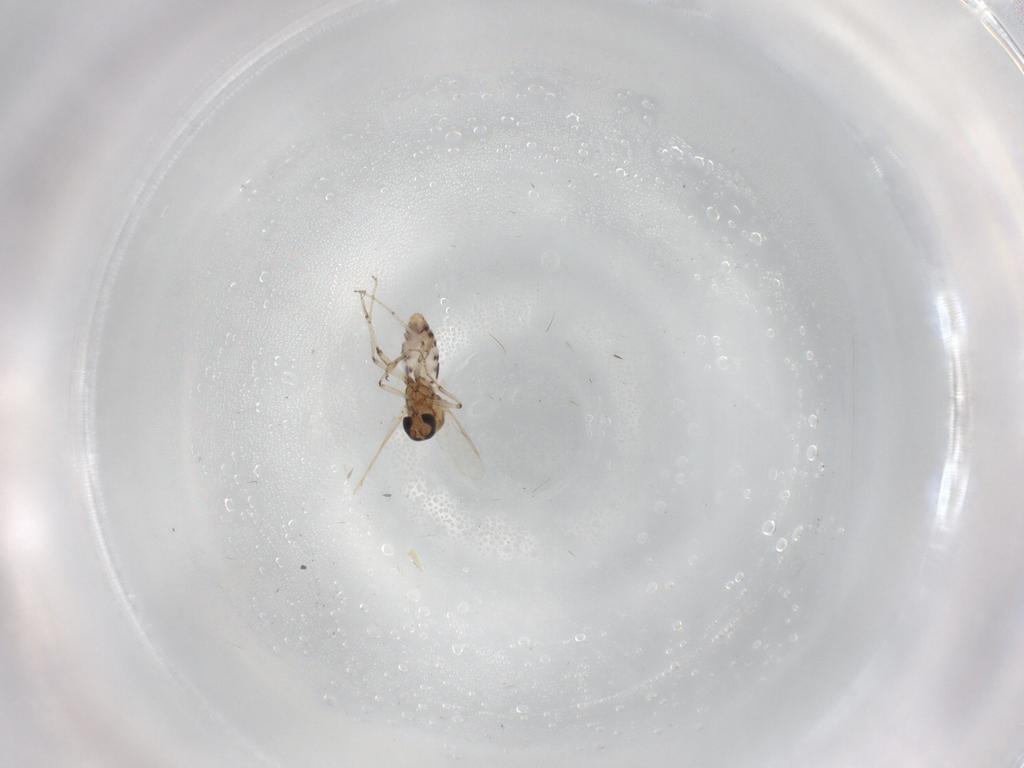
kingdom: Animalia
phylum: Arthropoda
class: Insecta
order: Diptera
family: Ceratopogonidae
